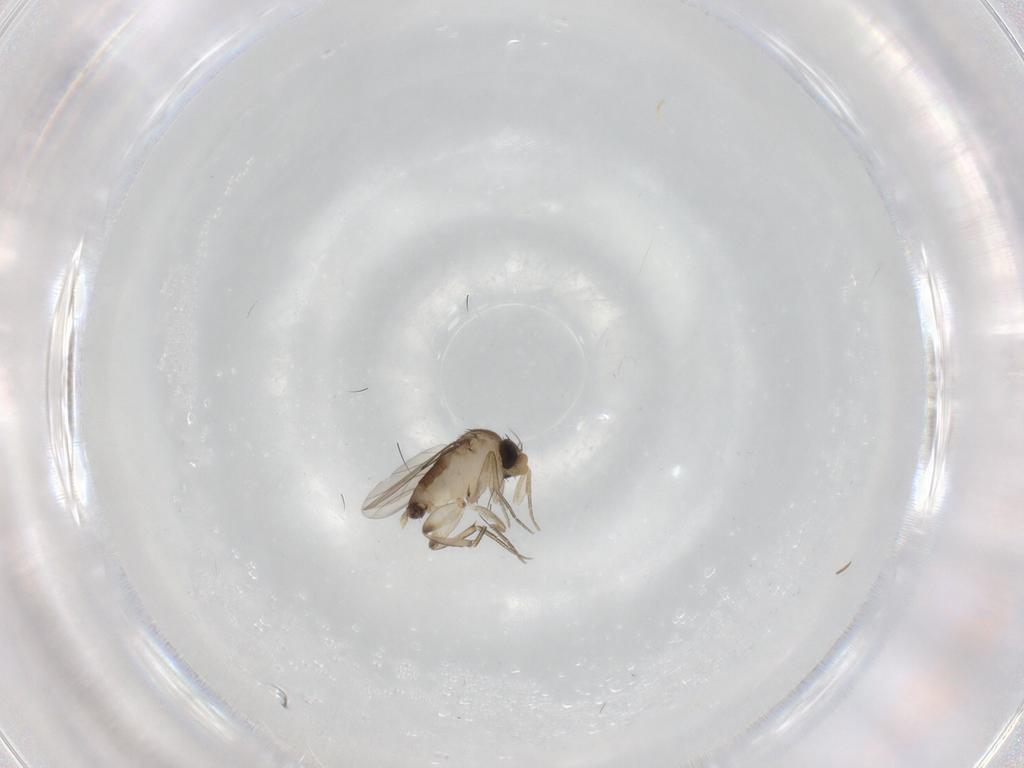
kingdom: Animalia
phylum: Arthropoda
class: Insecta
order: Diptera
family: Phoridae
